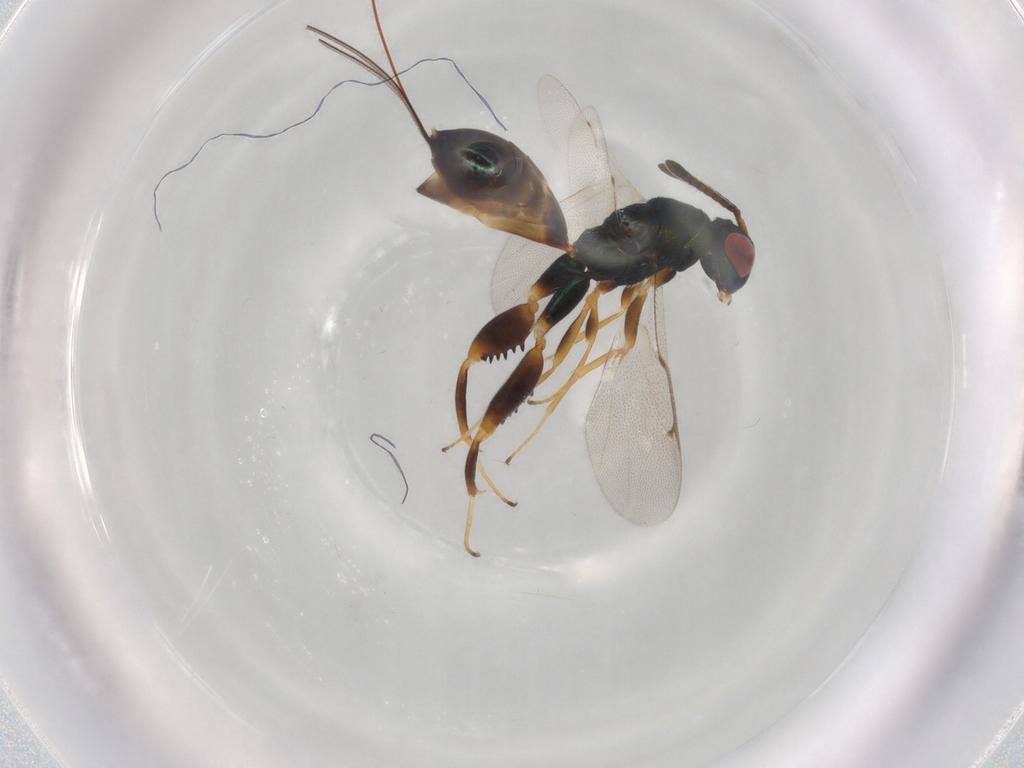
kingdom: Animalia
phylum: Arthropoda
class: Insecta
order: Hymenoptera
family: Torymidae
